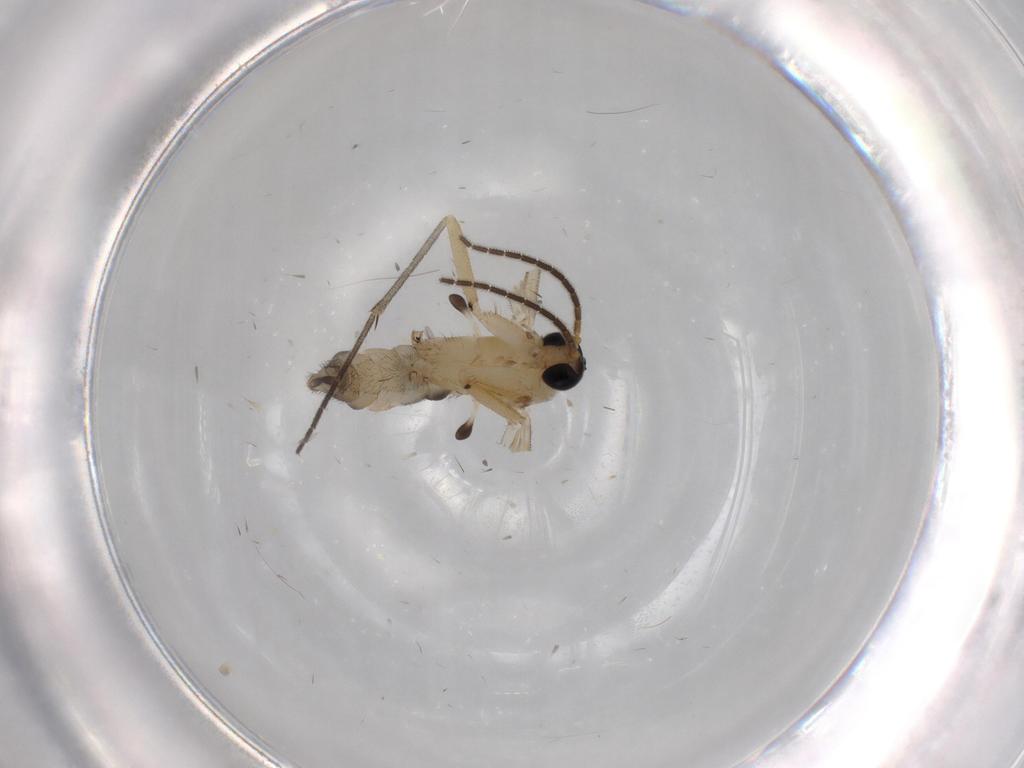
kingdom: Animalia
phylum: Arthropoda
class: Insecta
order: Diptera
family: Sciaridae
